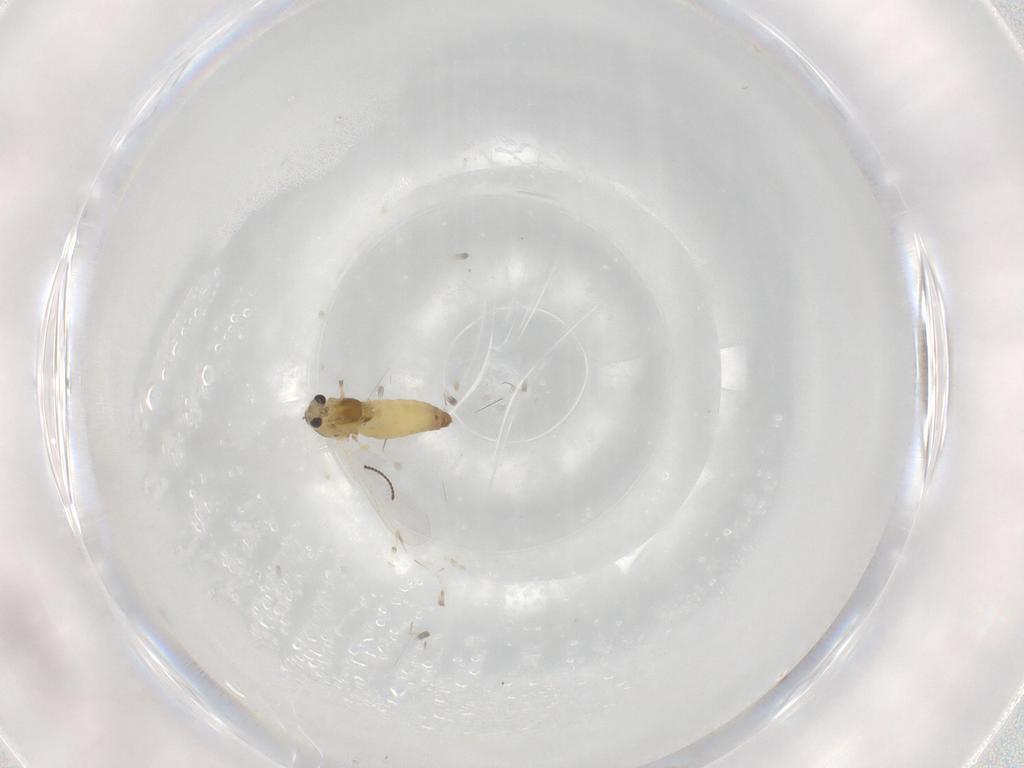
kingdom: Animalia
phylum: Arthropoda
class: Insecta
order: Diptera
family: Chironomidae
